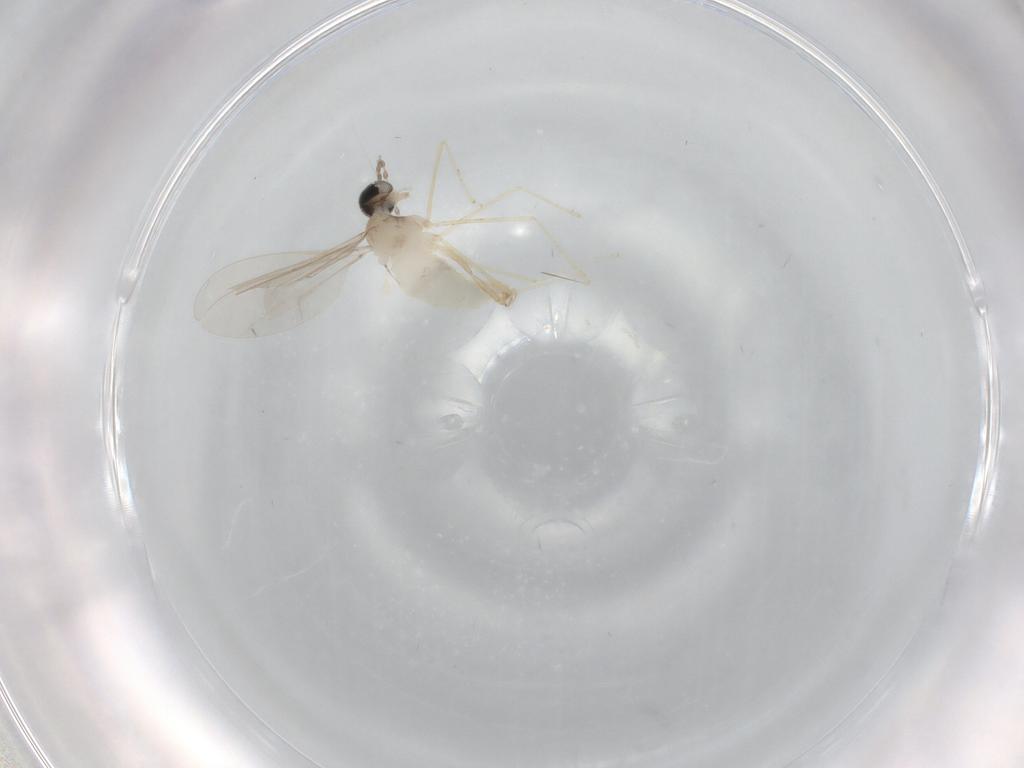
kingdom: Animalia
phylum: Arthropoda
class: Insecta
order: Diptera
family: Cecidomyiidae
